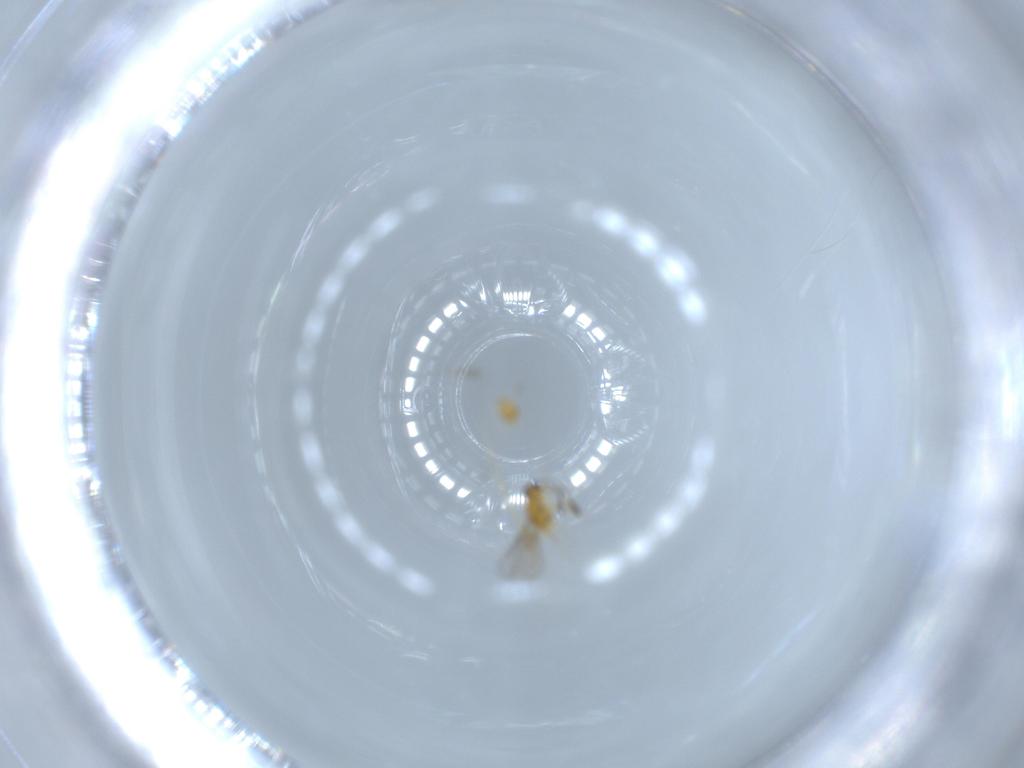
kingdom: Animalia
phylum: Arthropoda
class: Insecta
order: Hymenoptera
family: Mymaridae
